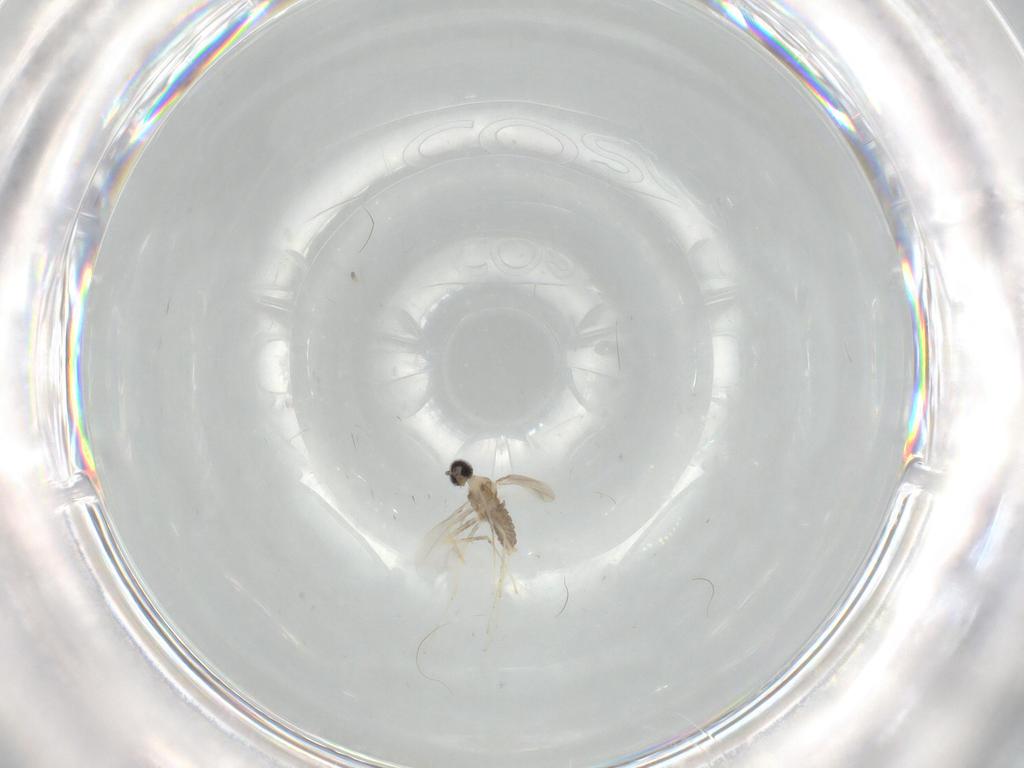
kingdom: Animalia
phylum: Arthropoda
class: Insecta
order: Diptera
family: Cecidomyiidae
